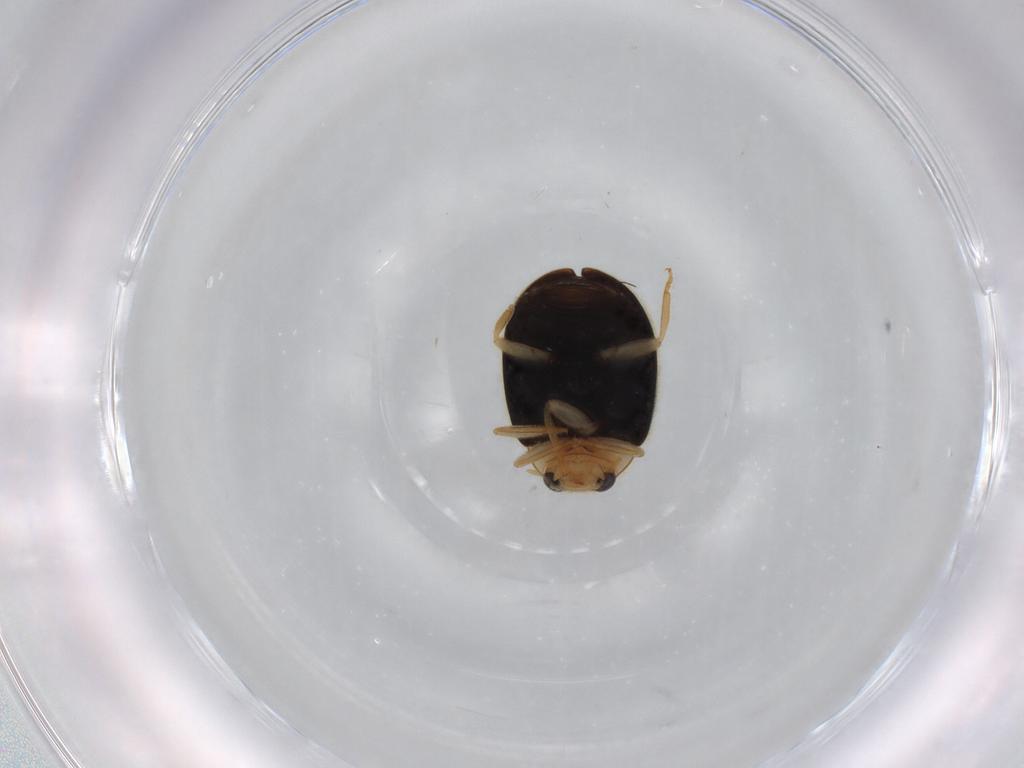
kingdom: Animalia
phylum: Arthropoda
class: Insecta
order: Coleoptera
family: Coccinellidae
